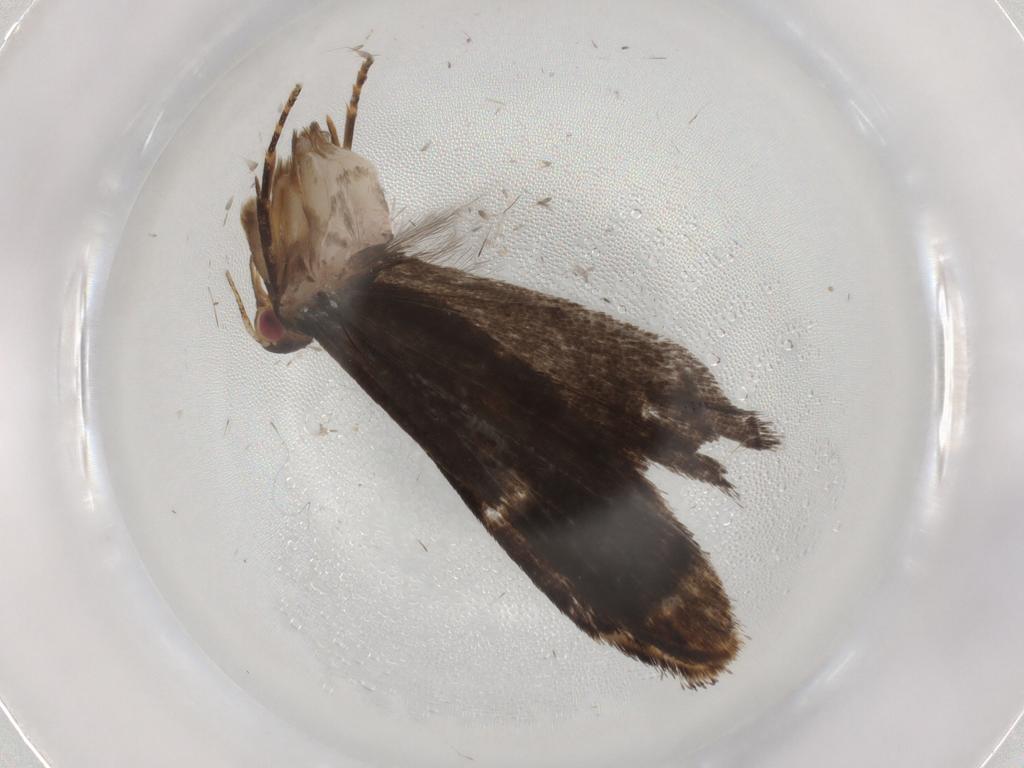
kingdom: Animalia
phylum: Arthropoda
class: Insecta
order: Lepidoptera
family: Gelechiidae
